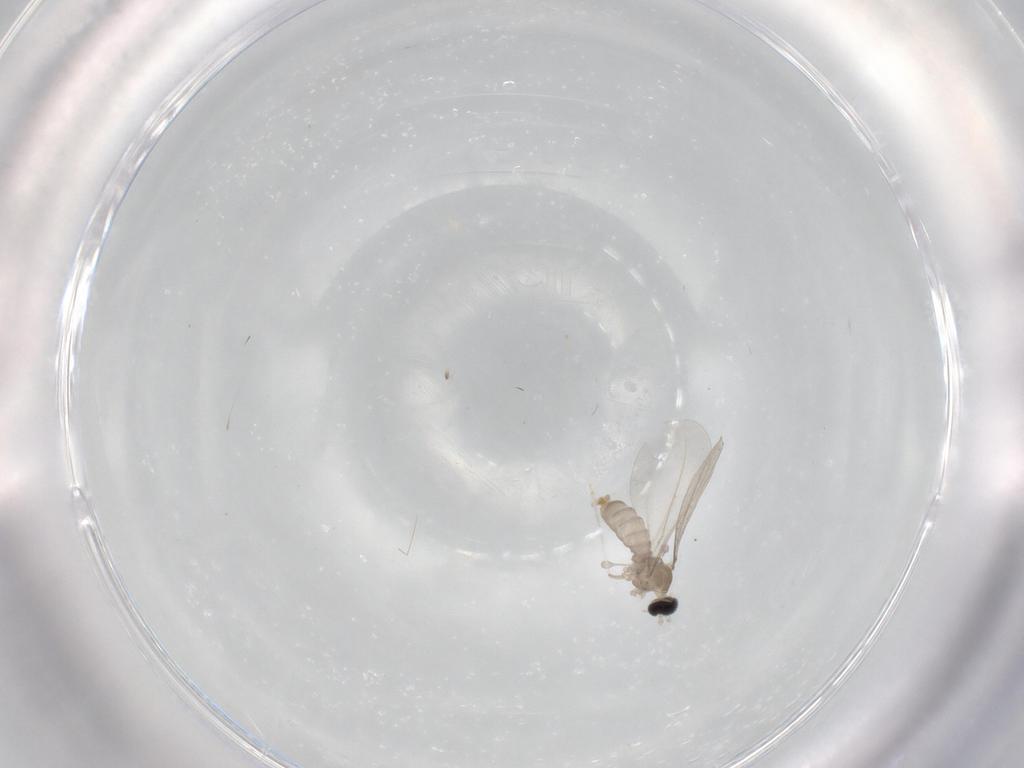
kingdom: Animalia
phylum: Arthropoda
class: Insecta
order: Diptera
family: Cecidomyiidae
